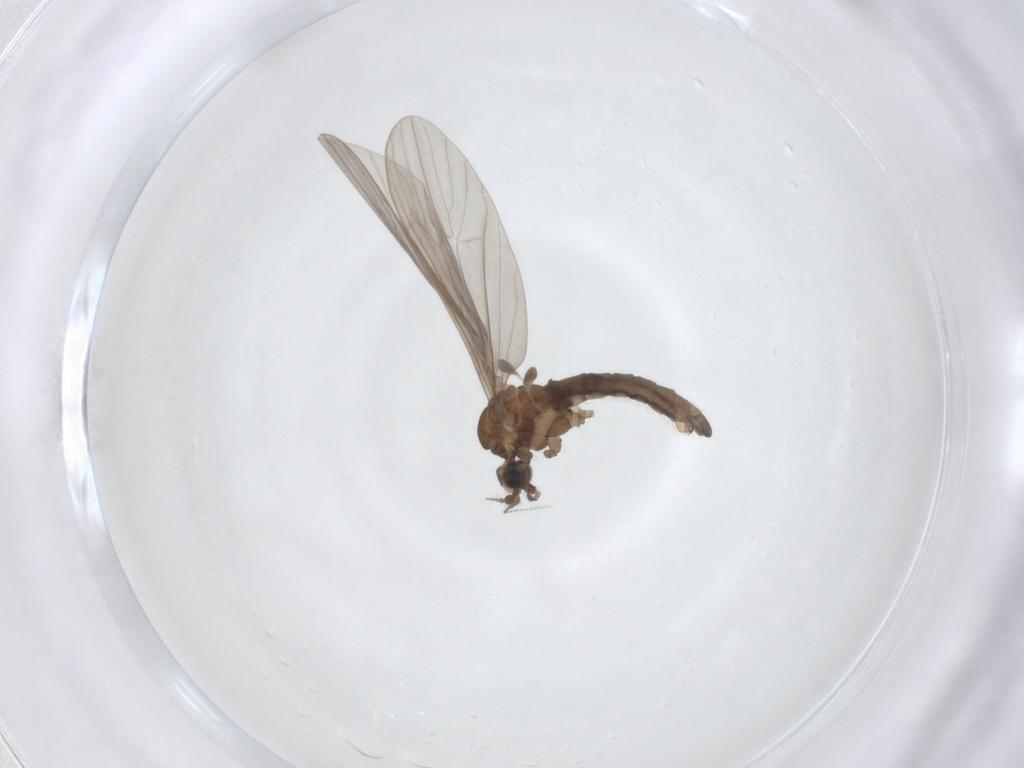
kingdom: Animalia
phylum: Arthropoda
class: Insecta
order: Diptera
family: Limoniidae
